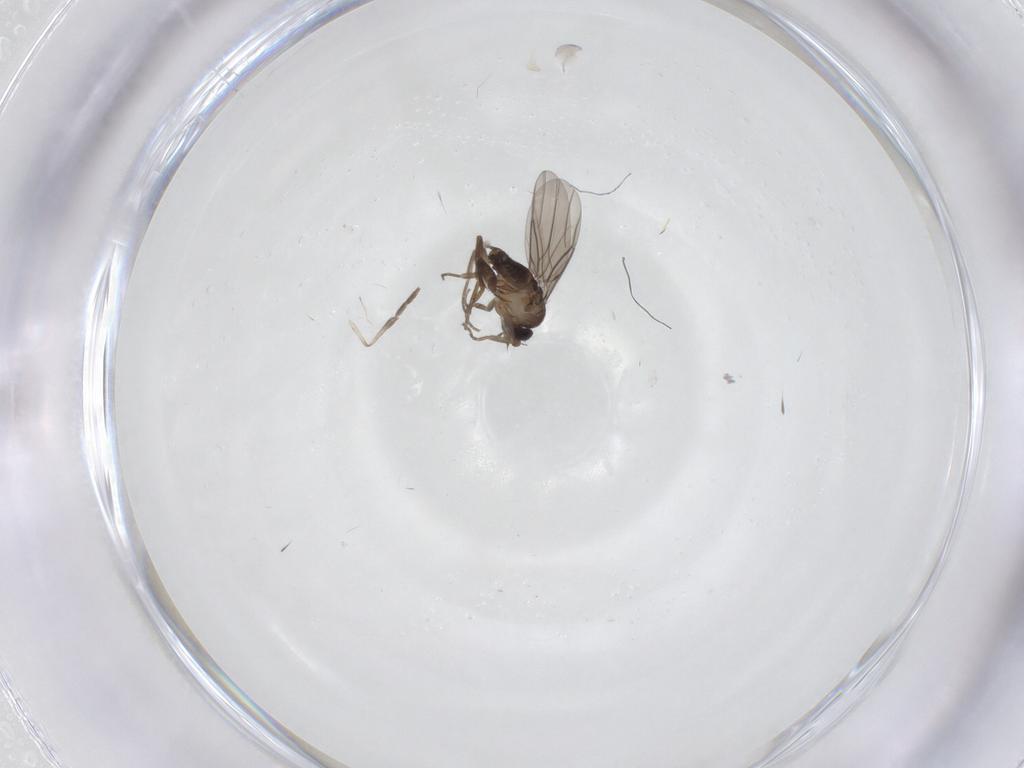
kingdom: Animalia
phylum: Arthropoda
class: Insecta
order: Diptera
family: Phoridae
